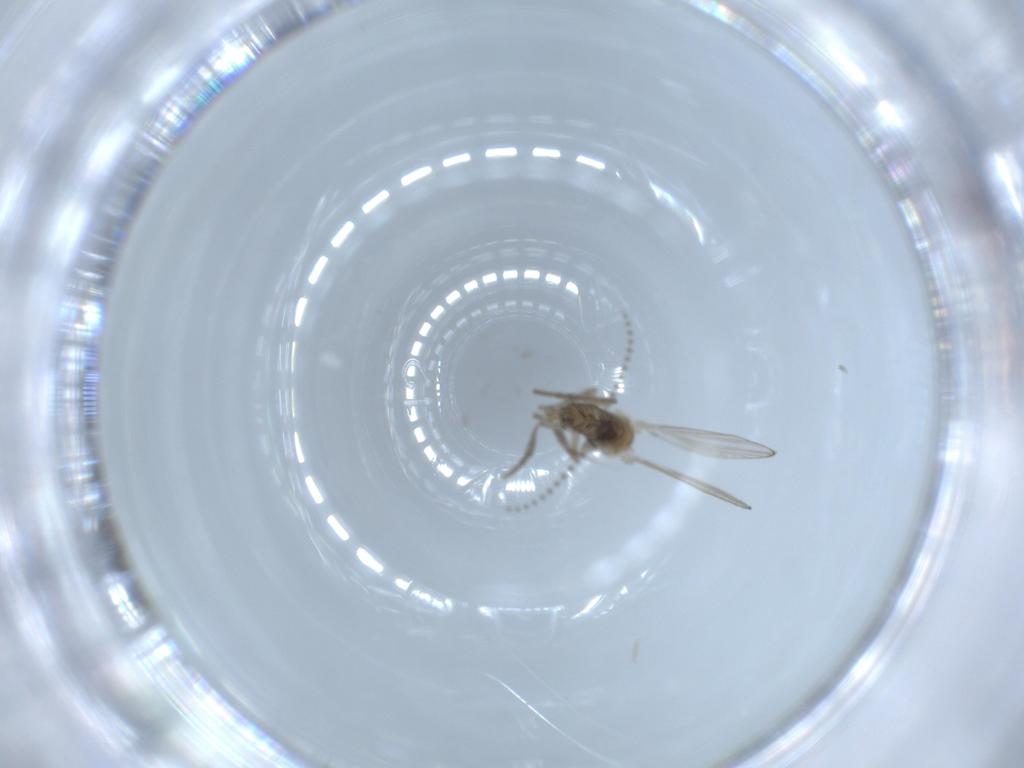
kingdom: Animalia
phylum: Arthropoda
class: Insecta
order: Diptera
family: Psychodidae
